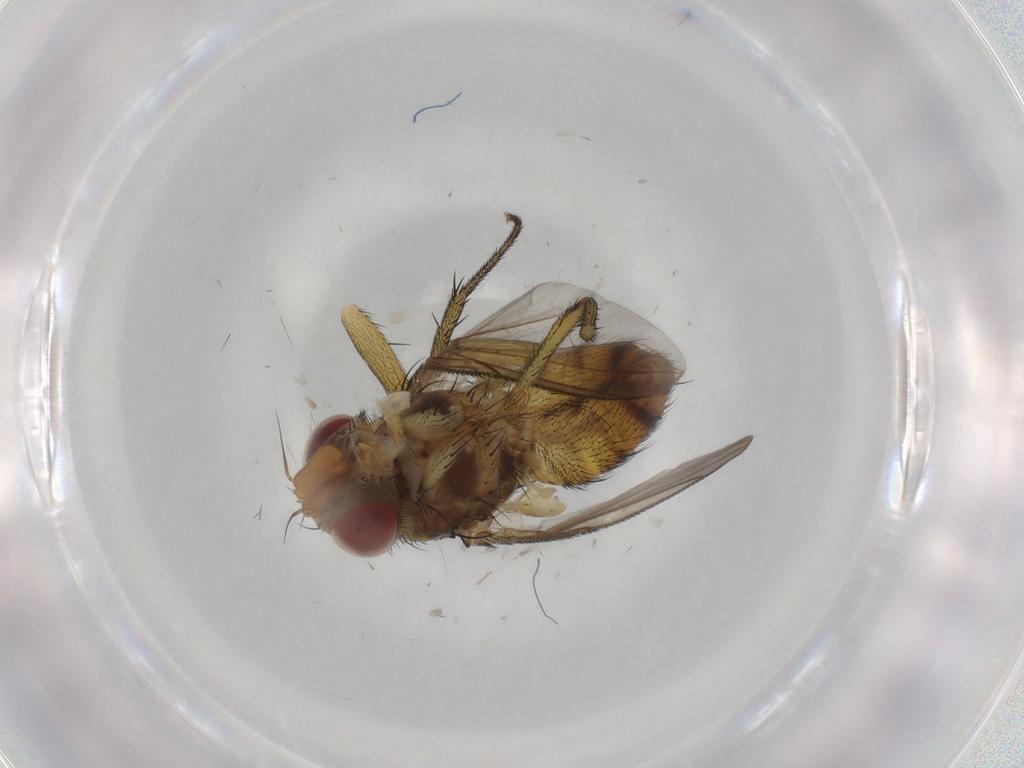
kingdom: Animalia
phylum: Arthropoda
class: Insecta
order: Diptera
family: Tachinidae
